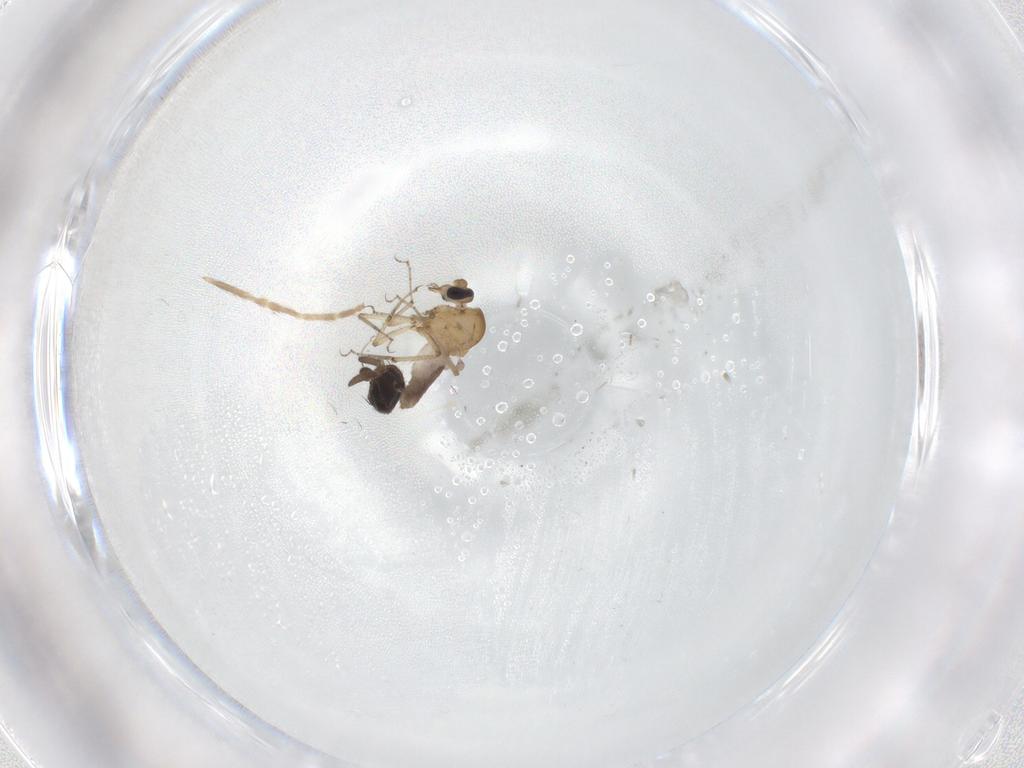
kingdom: Animalia
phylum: Arthropoda
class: Insecta
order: Diptera
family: Chironomidae
